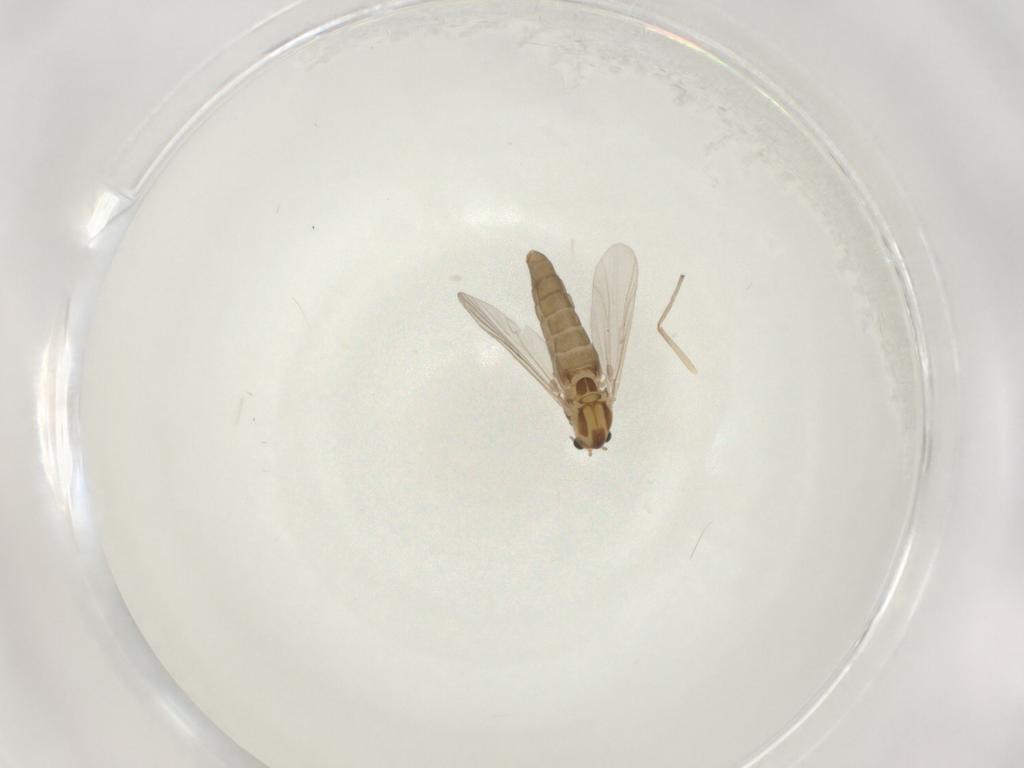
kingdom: Animalia
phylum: Arthropoda
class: Insecta
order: Diptera
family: Chironomidae
